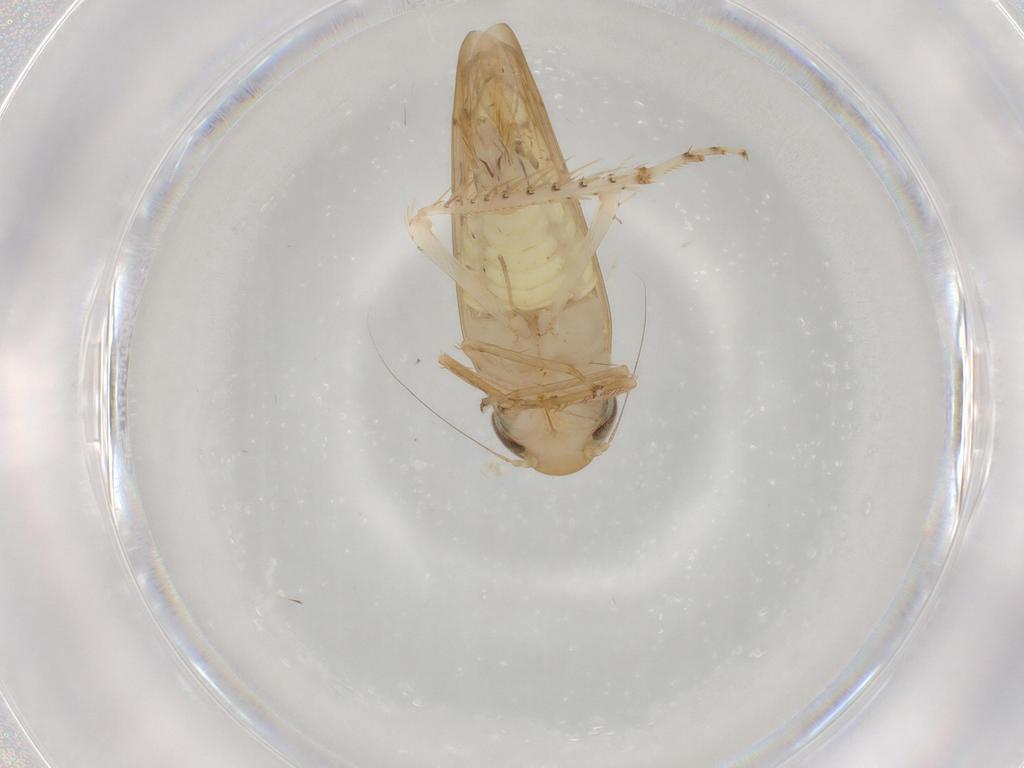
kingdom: Animalia
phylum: Arthropoda
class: Insecta
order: Hemiptera
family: Cicadellidae
